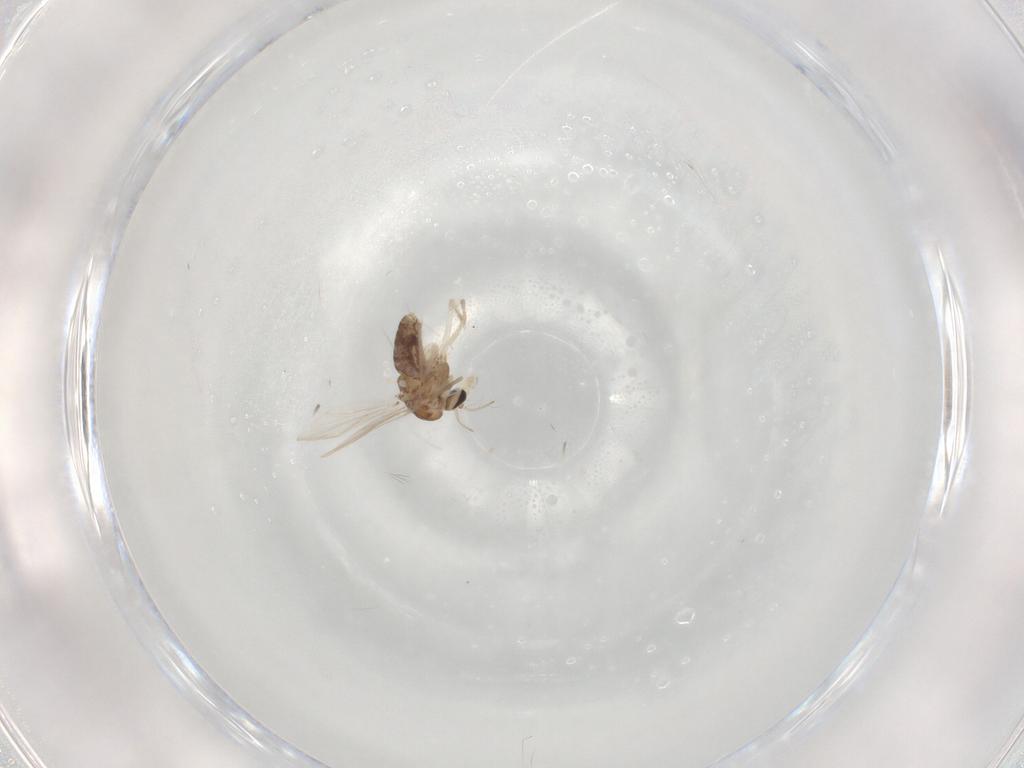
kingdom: Animalia
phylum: Arthropoda
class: Insecta
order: Diptera
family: Chironomidae
